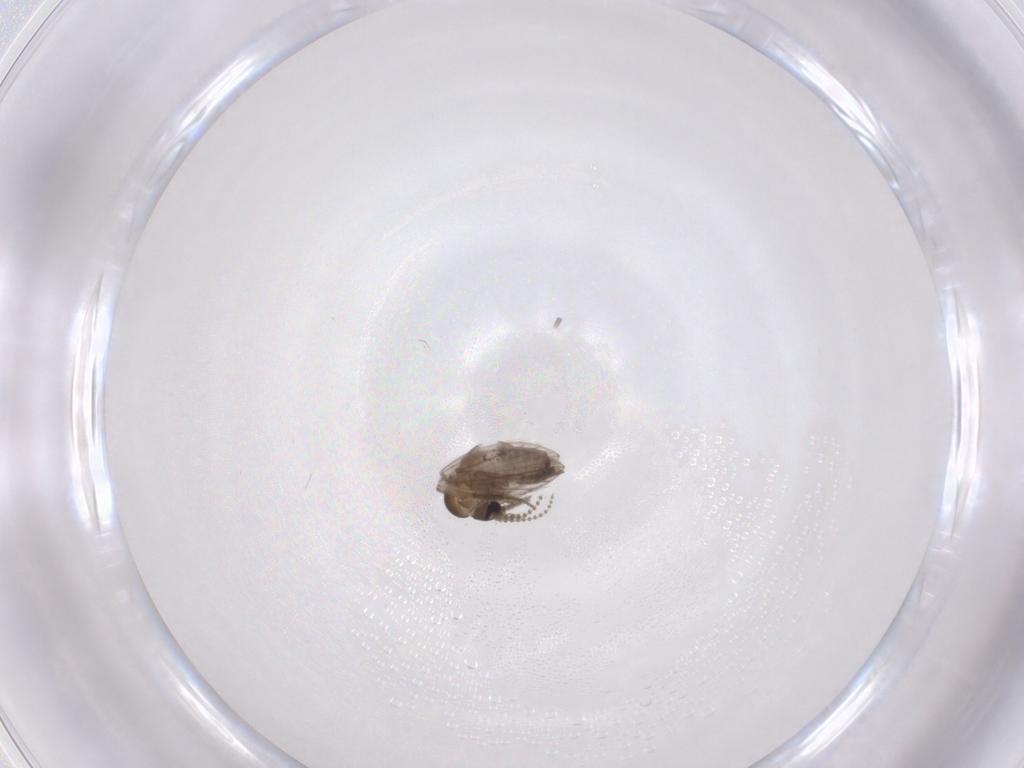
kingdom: Animalia
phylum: Arthropoda
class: Insecta
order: Diptera
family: Psychodidae
